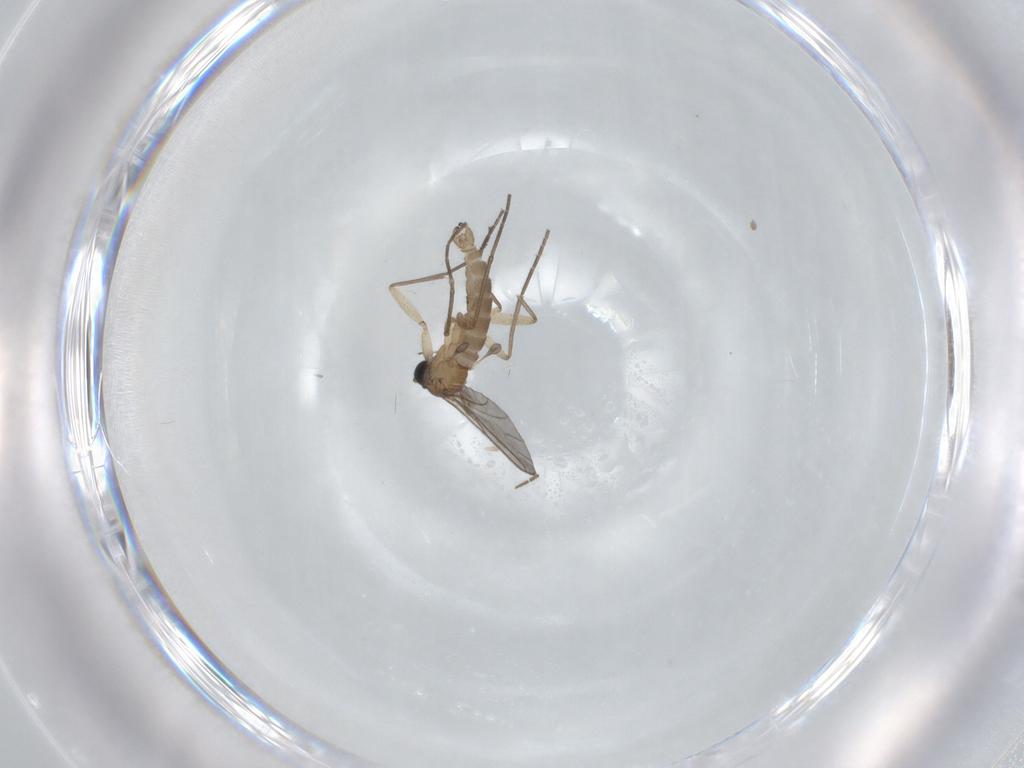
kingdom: Animalia
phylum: Arthropoda
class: Insecta
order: Diptera
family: Sciaridae
